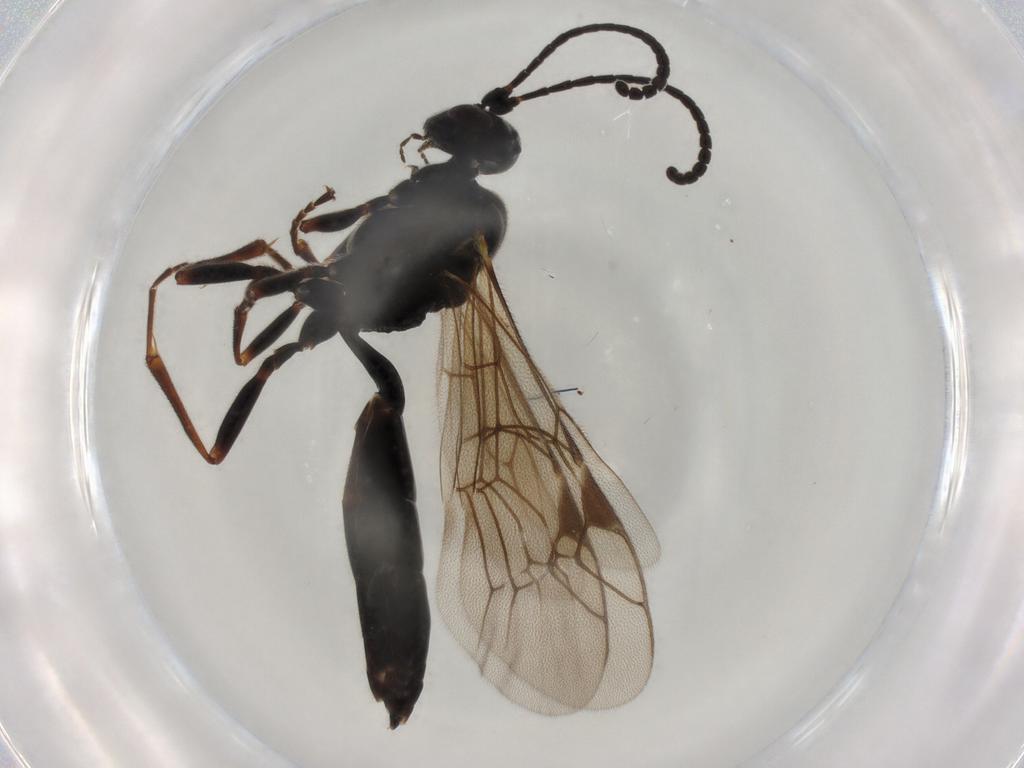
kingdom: Animalia
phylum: Arthropoda
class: Insecta
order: Hymenoptera
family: Ichneumonidae
